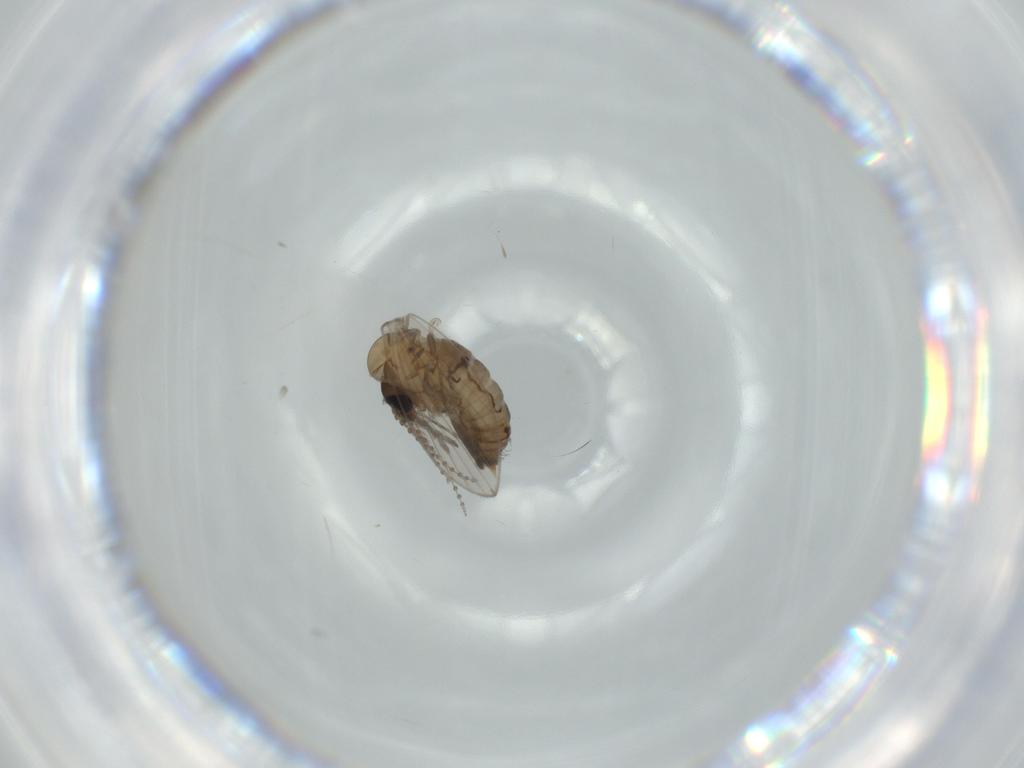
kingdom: Animalia
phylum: Arthropoda
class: Insecta
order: Diptera
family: Psychodidae
